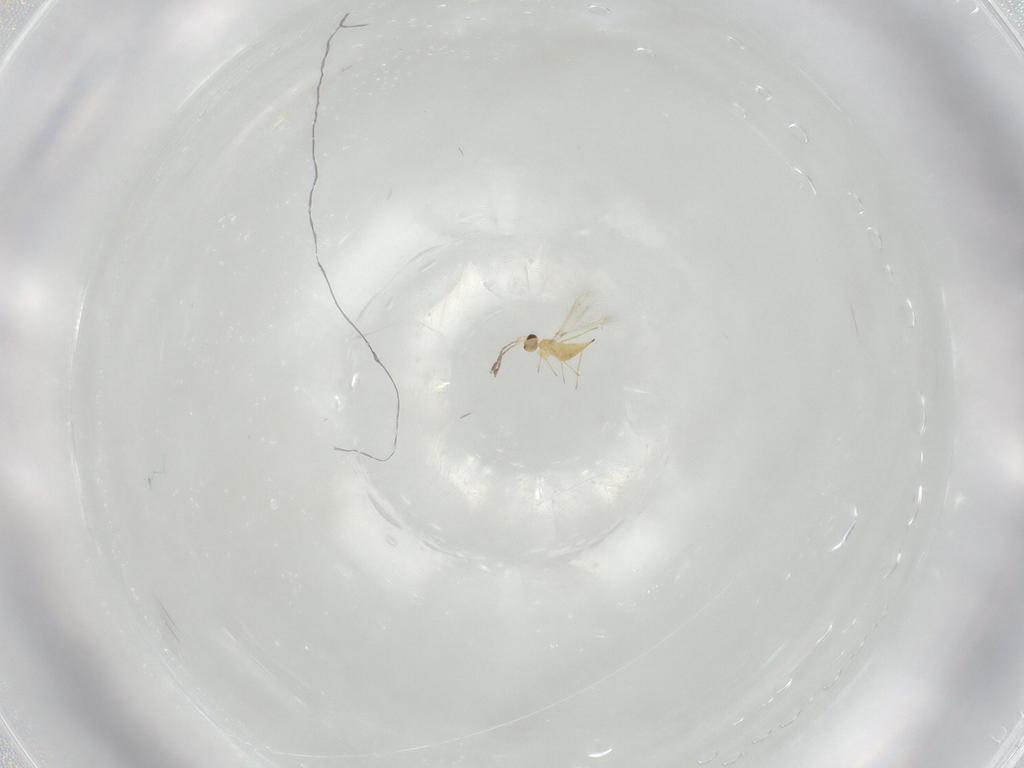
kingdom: Animalia
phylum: Arthropoda
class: Insecta
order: Hymenoptera
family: Mymaridae
